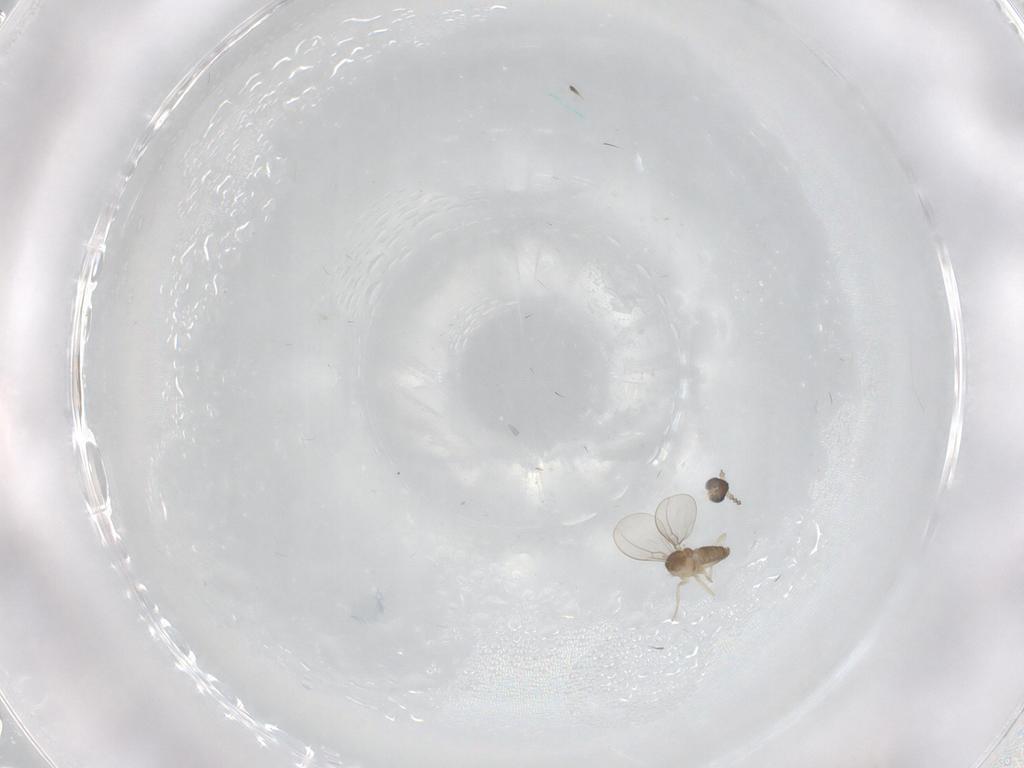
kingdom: Animalia
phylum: Arthropoda
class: Insecta
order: Diptera
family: Cecidomyiidae
